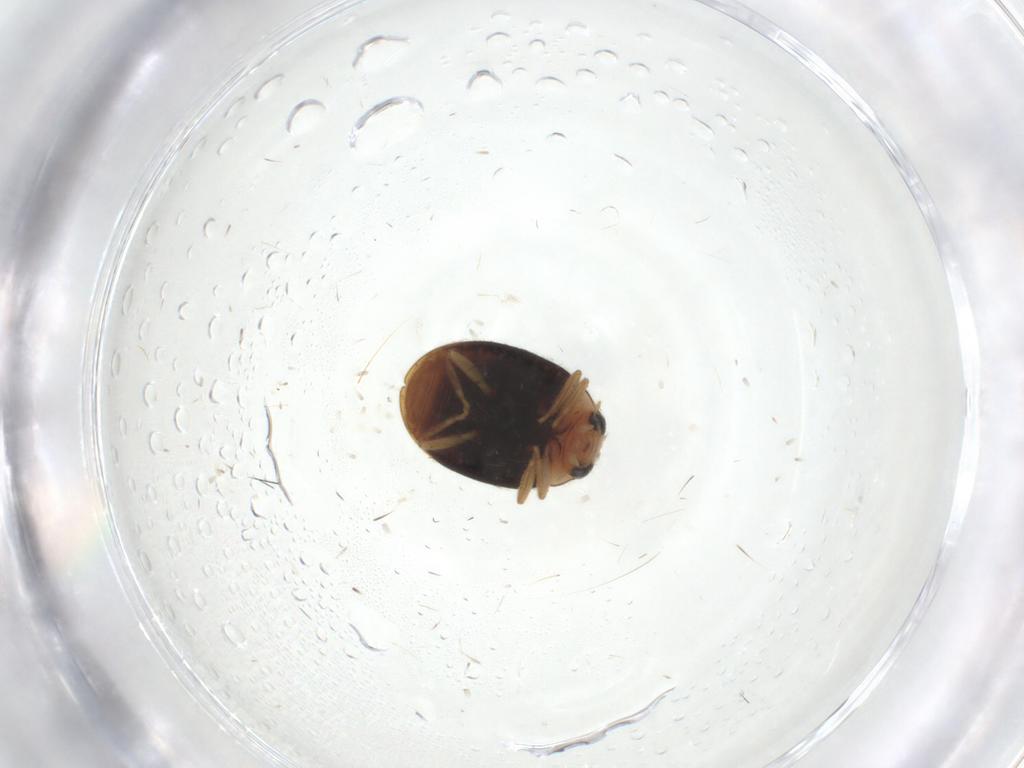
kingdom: Animalia
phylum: Arthropoda
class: Insecta
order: Coleoptera
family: Coccinellidae
